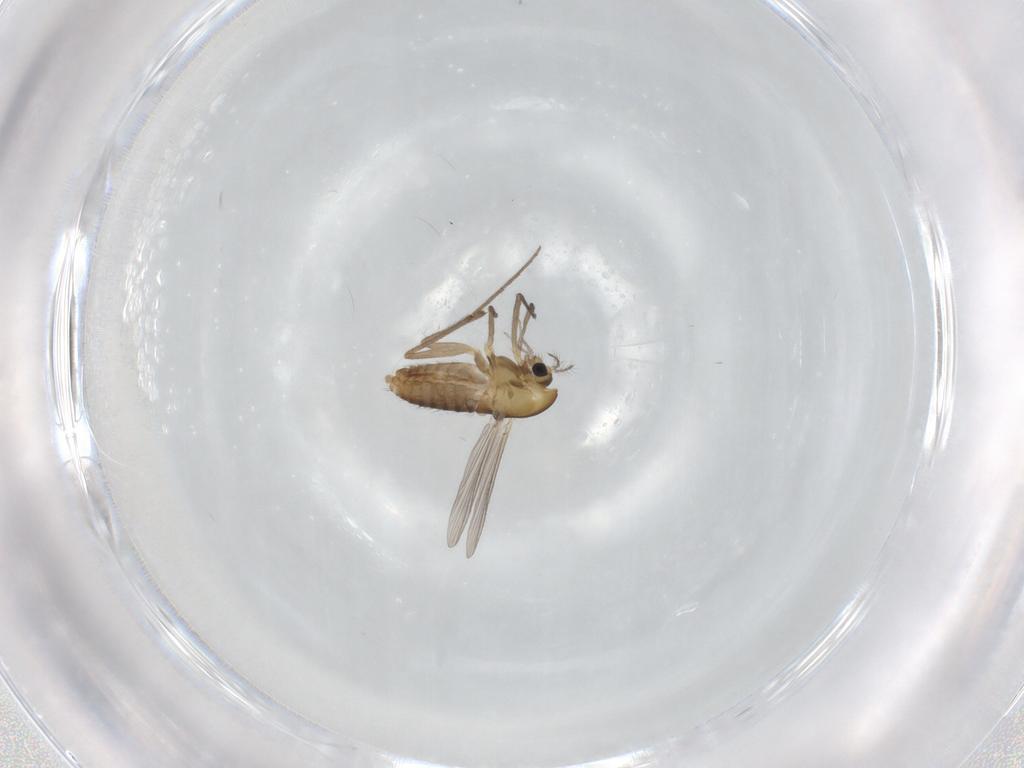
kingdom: Animalia
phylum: Arthropoda
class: Insecta
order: Diptera
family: Chironomidae
